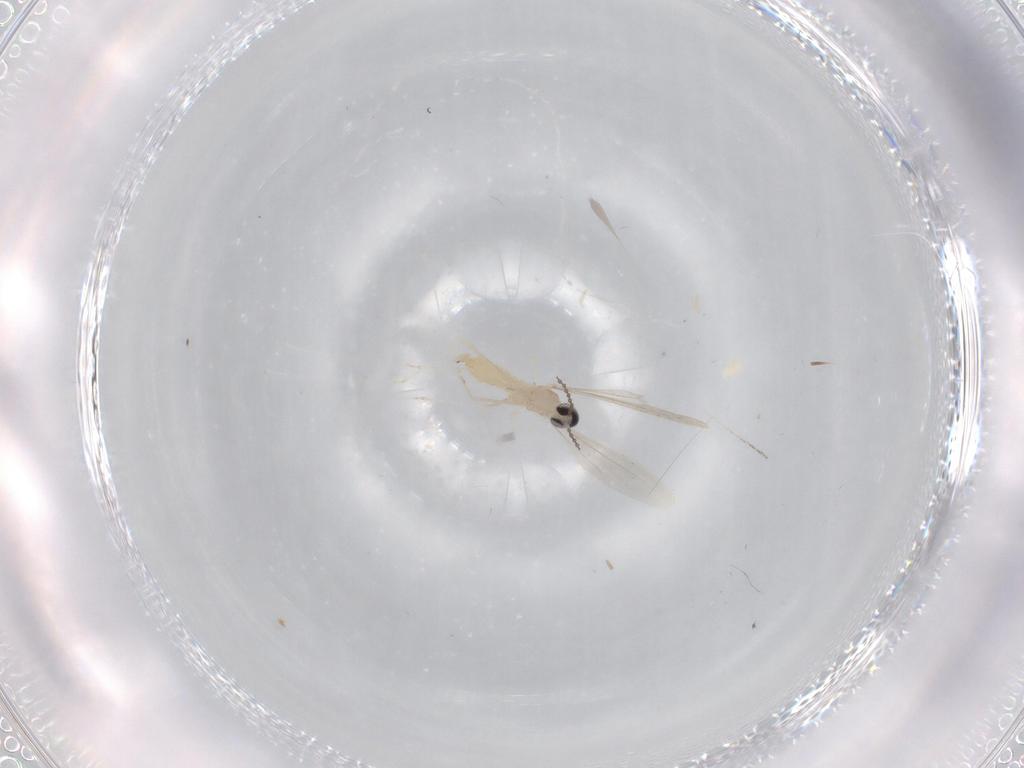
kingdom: Animalia
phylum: Arthropoda
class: Insecta
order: Diptera
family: Cecidomyiidae
